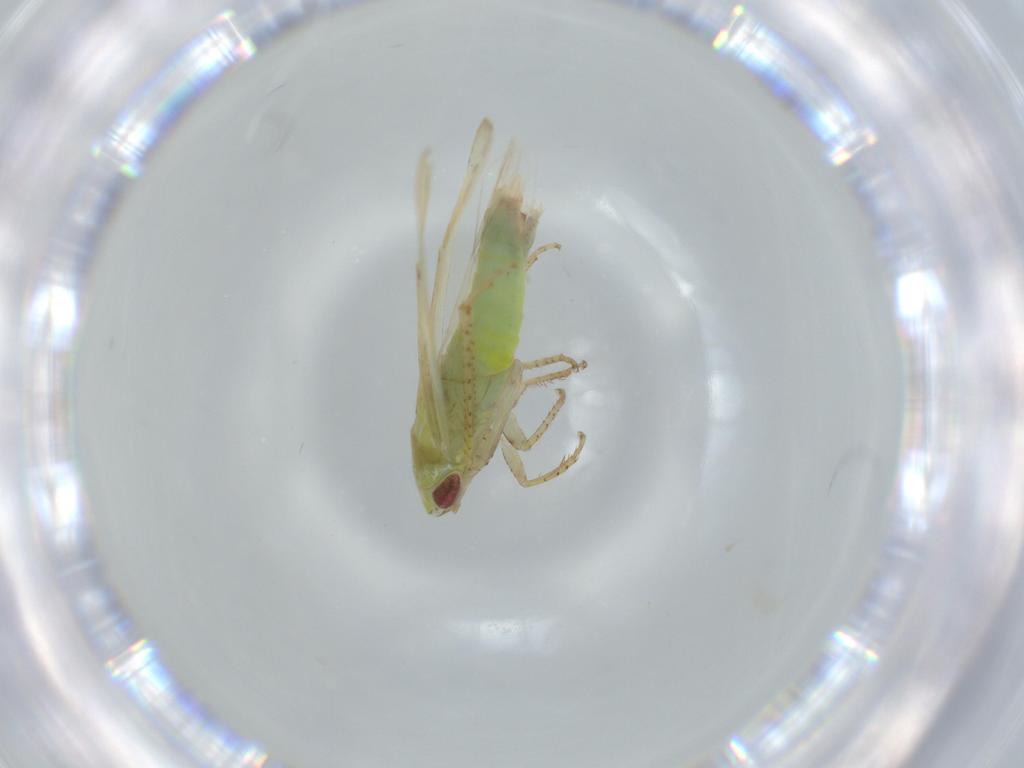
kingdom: Animalia
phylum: Arthropoda
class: Insecta
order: Hemiptera
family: Cicadellidae
